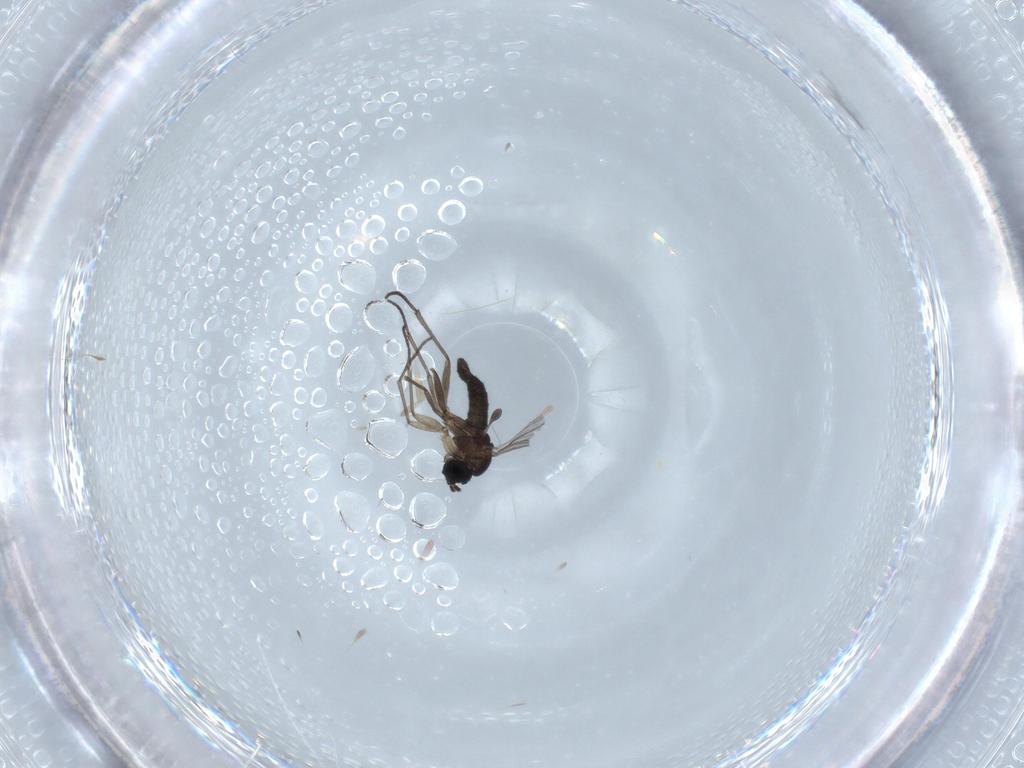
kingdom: Animalia
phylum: Arthropoda
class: Insecta
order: Diptera
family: Sciaridae
